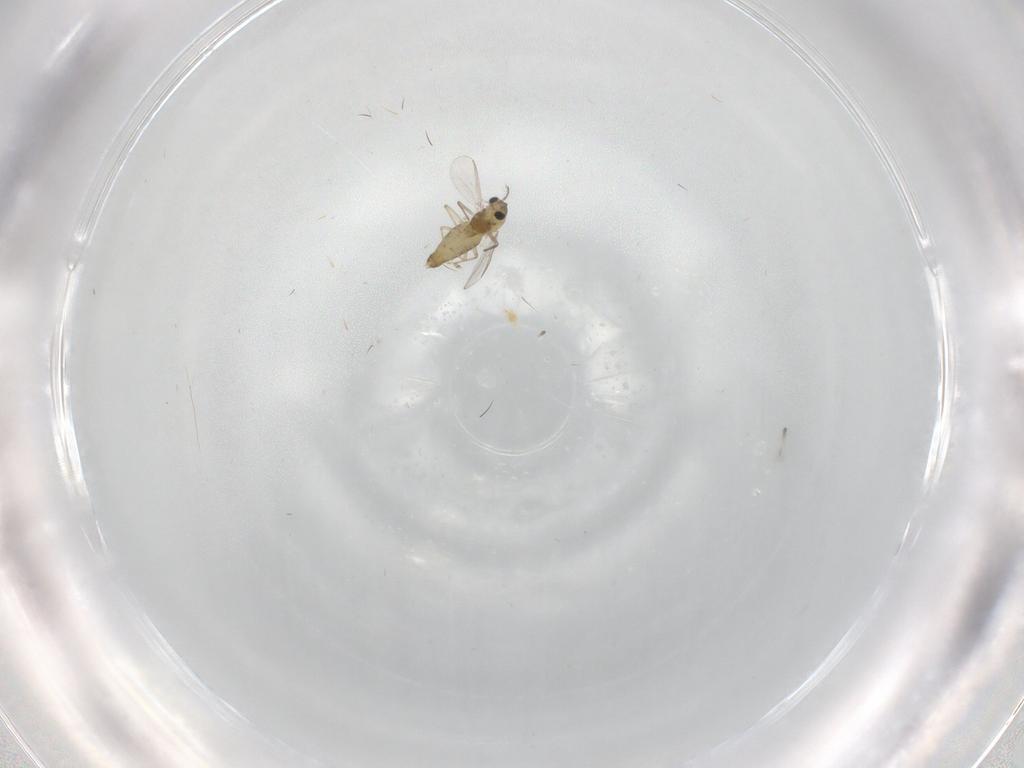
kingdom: Animalia
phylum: Arthropoda
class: Insecta
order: Diptera
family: Chironomidae
